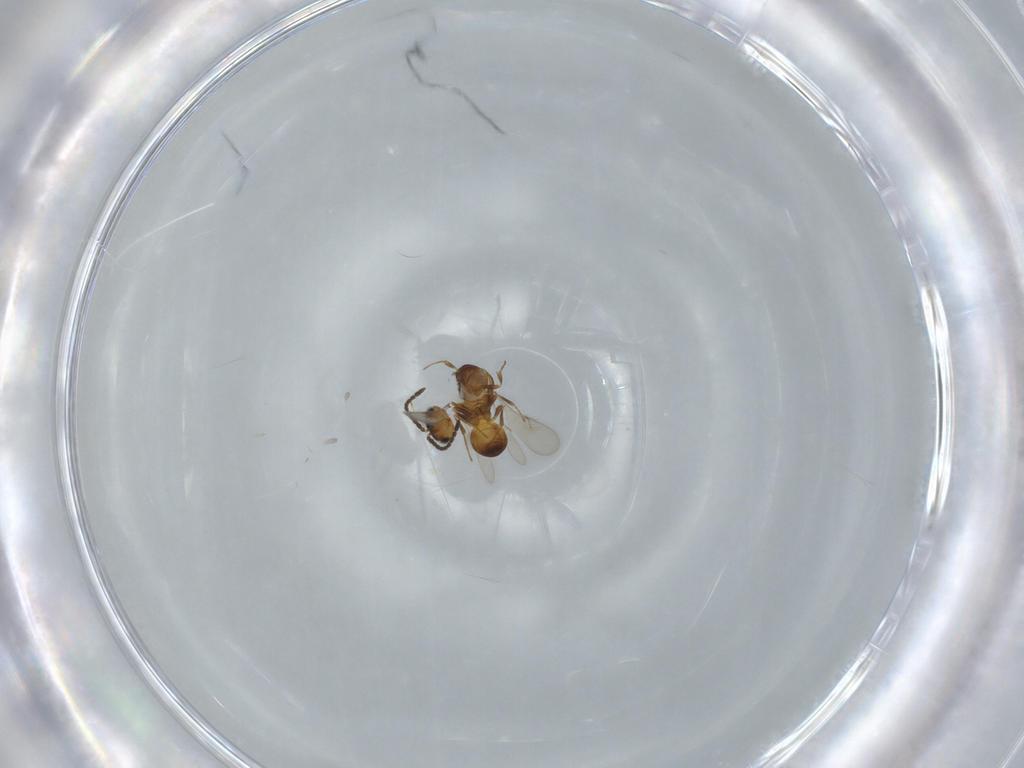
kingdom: Animalia
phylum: Arthropoda
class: Insecta
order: Hymenoptera
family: Scelionidae
